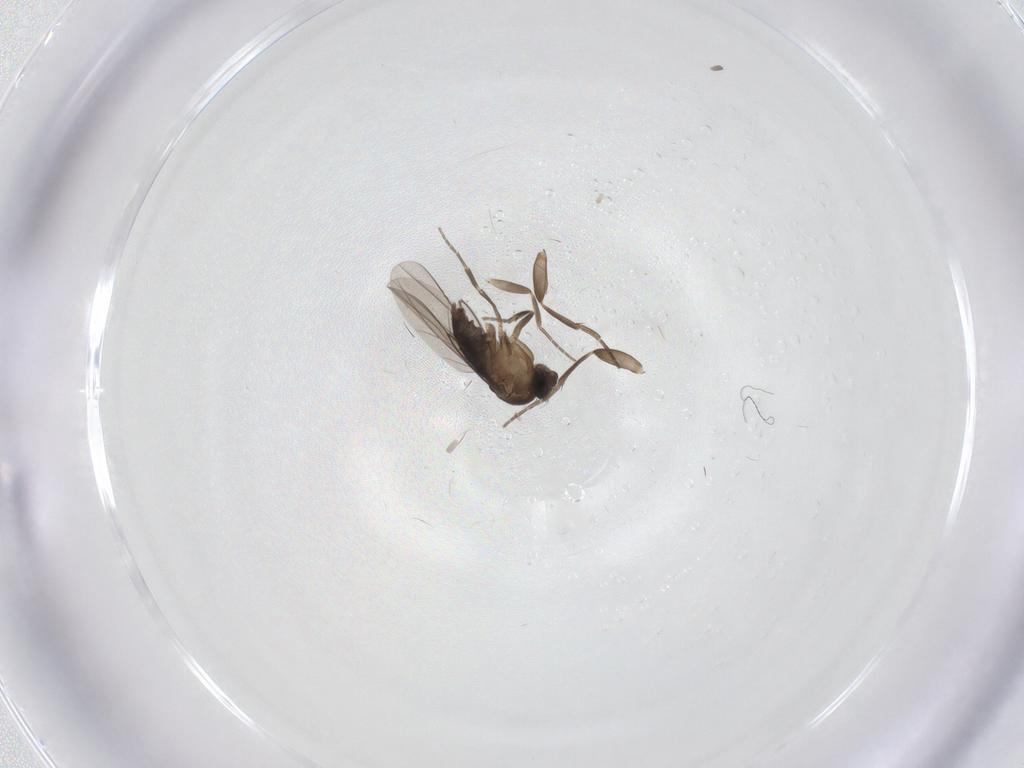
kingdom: Animalia
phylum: Arthropoda
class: Insecta
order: Diptera
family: Phoridae
